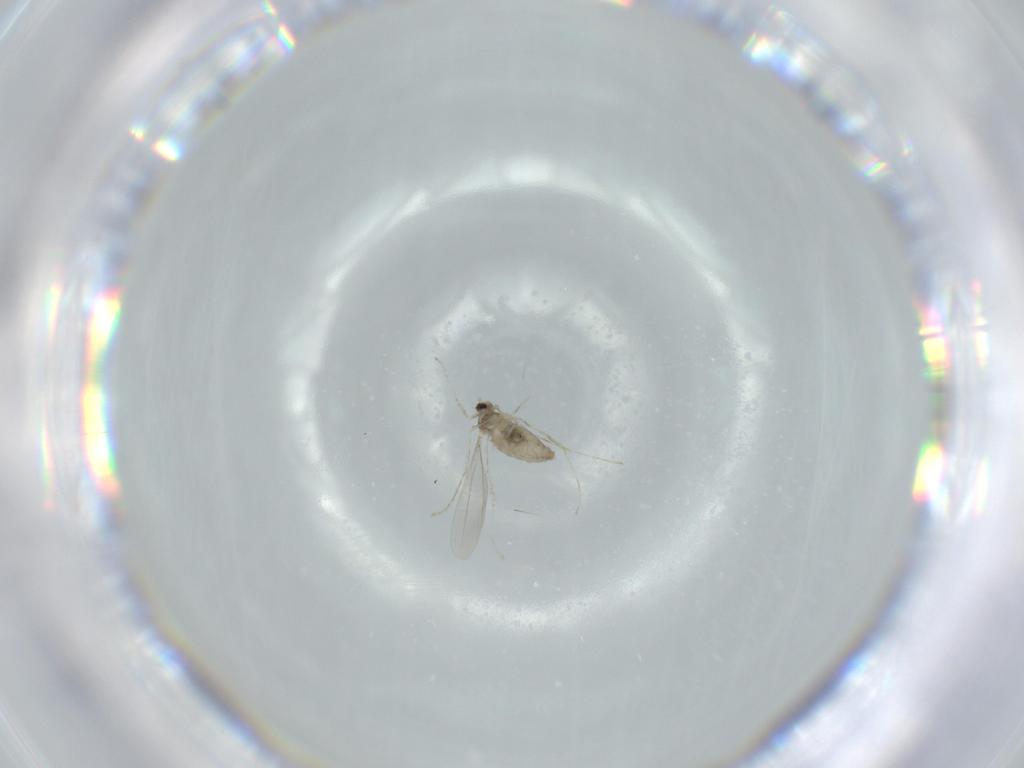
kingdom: Animalia
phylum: Arthropoda
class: Insecta
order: Diptera
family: Cecidomyiidae
